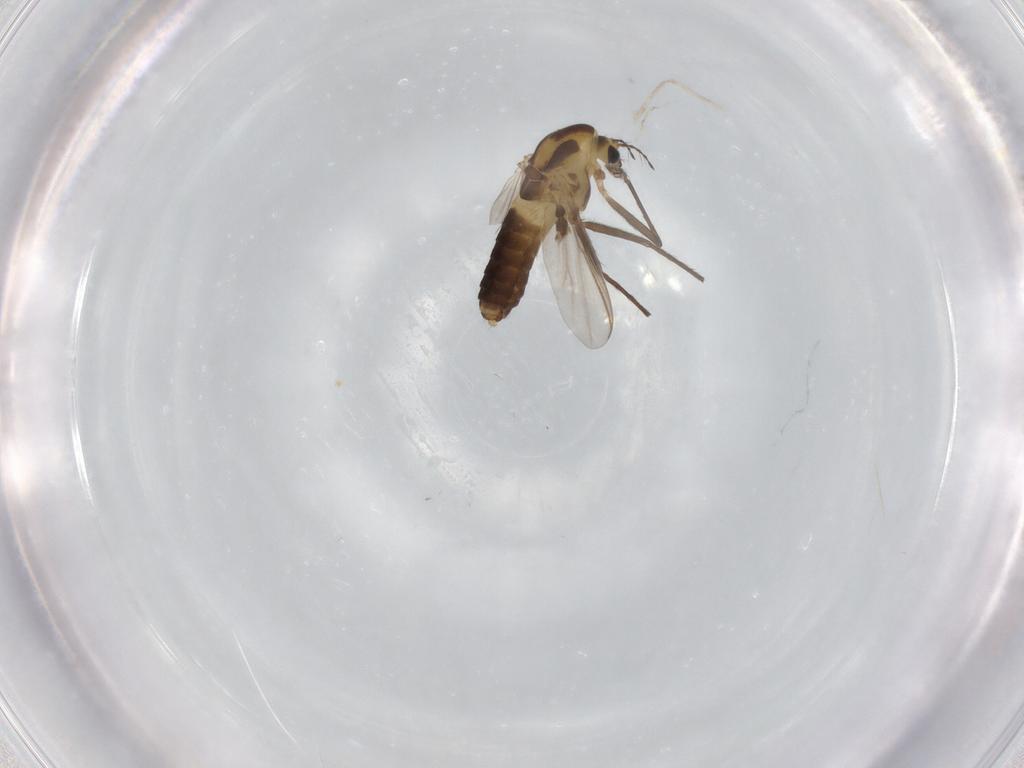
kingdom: Animalia
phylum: Arthropoda
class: Insecta
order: Diptera
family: Chironomidae
